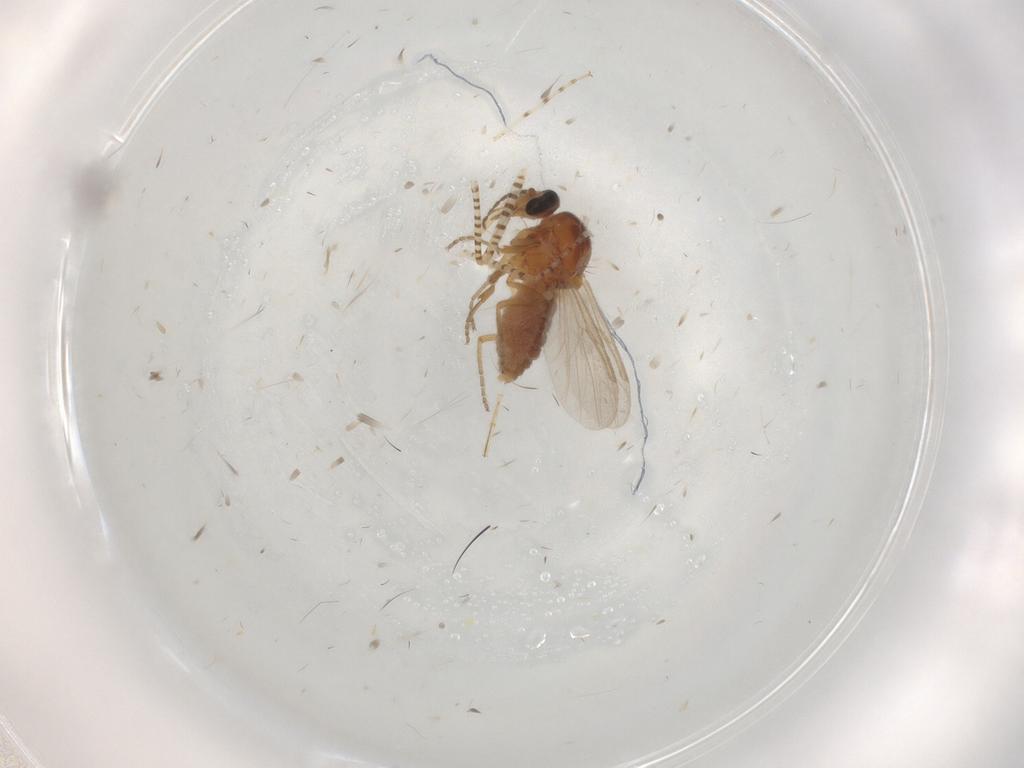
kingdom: Animalia
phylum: Arthropoda
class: Insecta
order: Diptera
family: Ceratopogonidae
